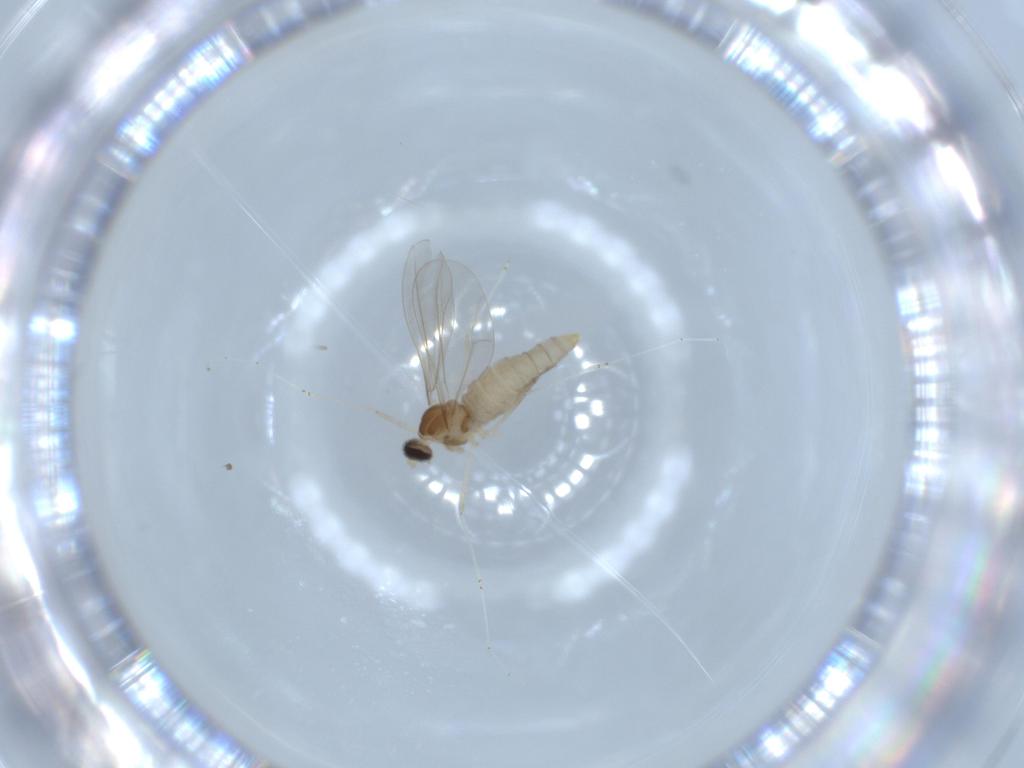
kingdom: Animalia
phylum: Arthropoda
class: Insecta
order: Diptera
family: Cecidomyiidae
